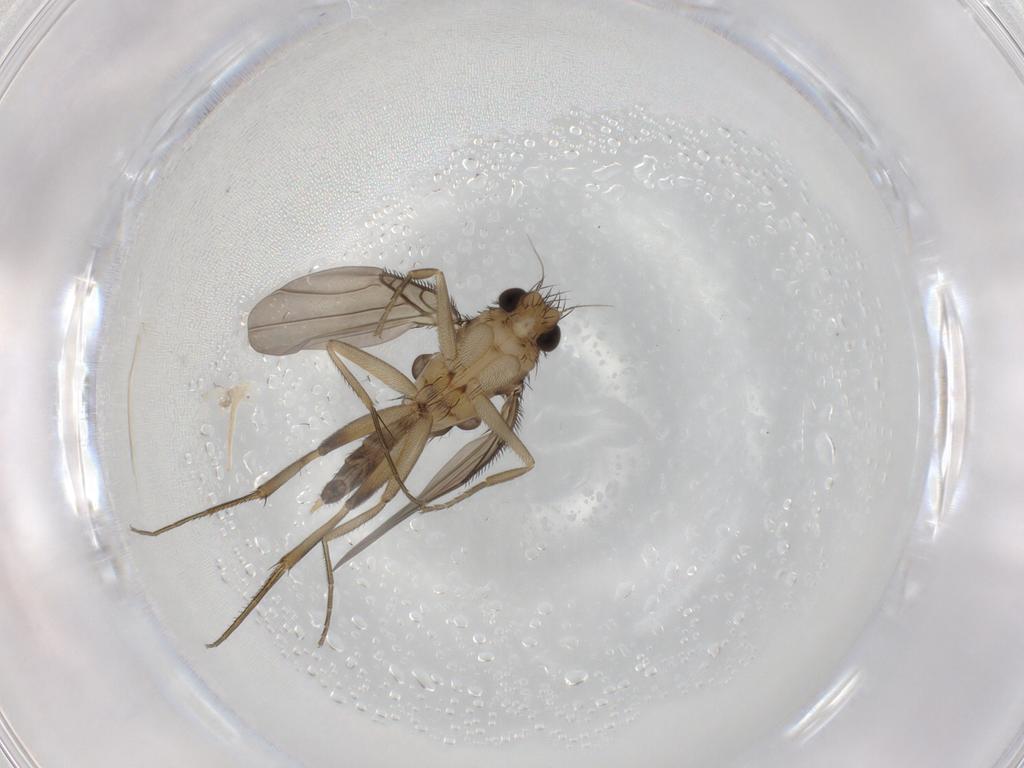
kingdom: Animalia
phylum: Arthropoda
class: Insecta
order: Diptera
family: Phoridae
